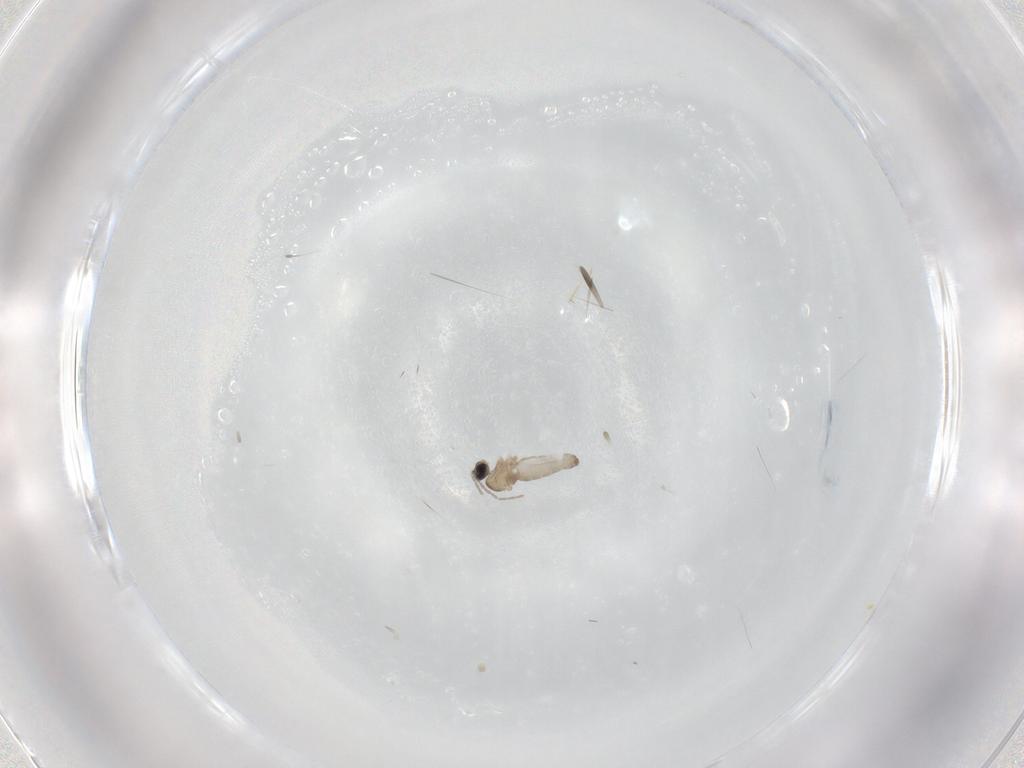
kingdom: Animalia
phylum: Arthropoda
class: Insecta
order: Diptera
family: Cecidomyiidae
